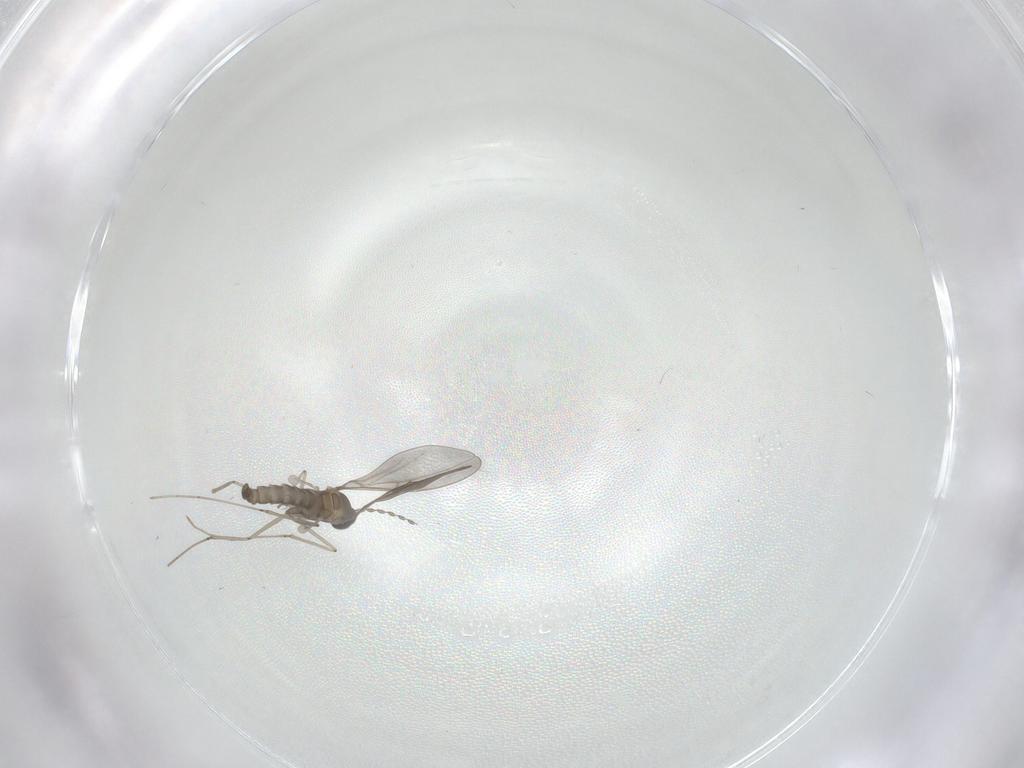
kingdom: Animalia
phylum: Arthropoda
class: Insecta
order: Diptera
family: Cecidomyiidae
